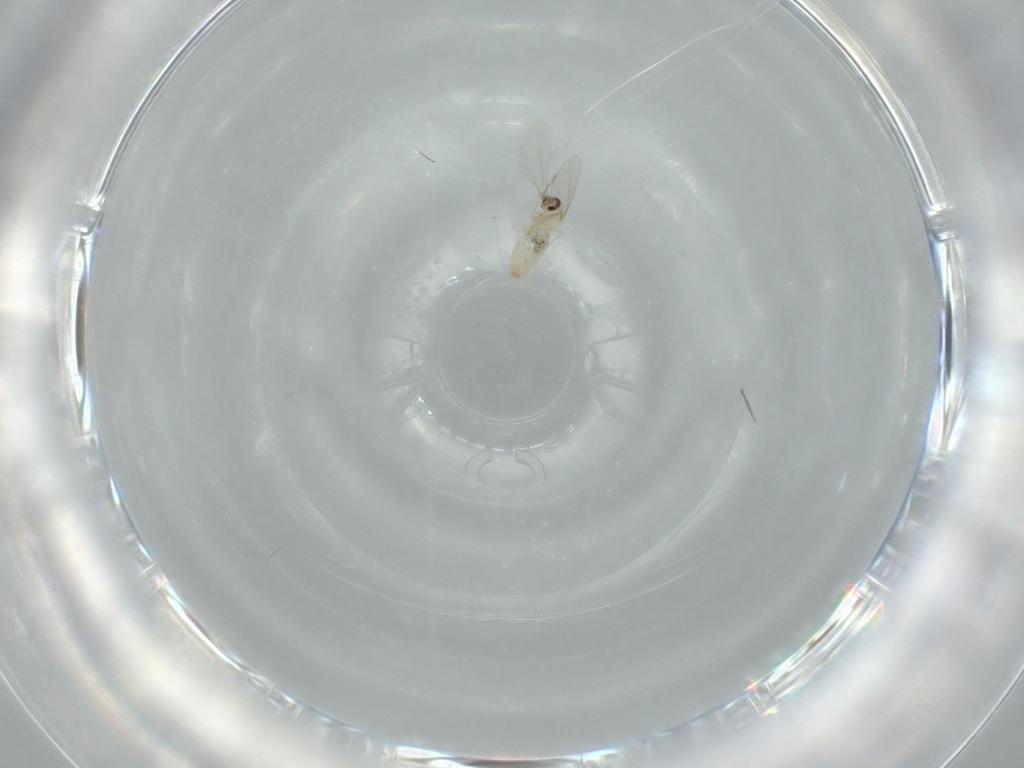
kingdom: Animalia
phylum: Arthropoda
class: Insecta
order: Diptera
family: Cecidomyiidae
